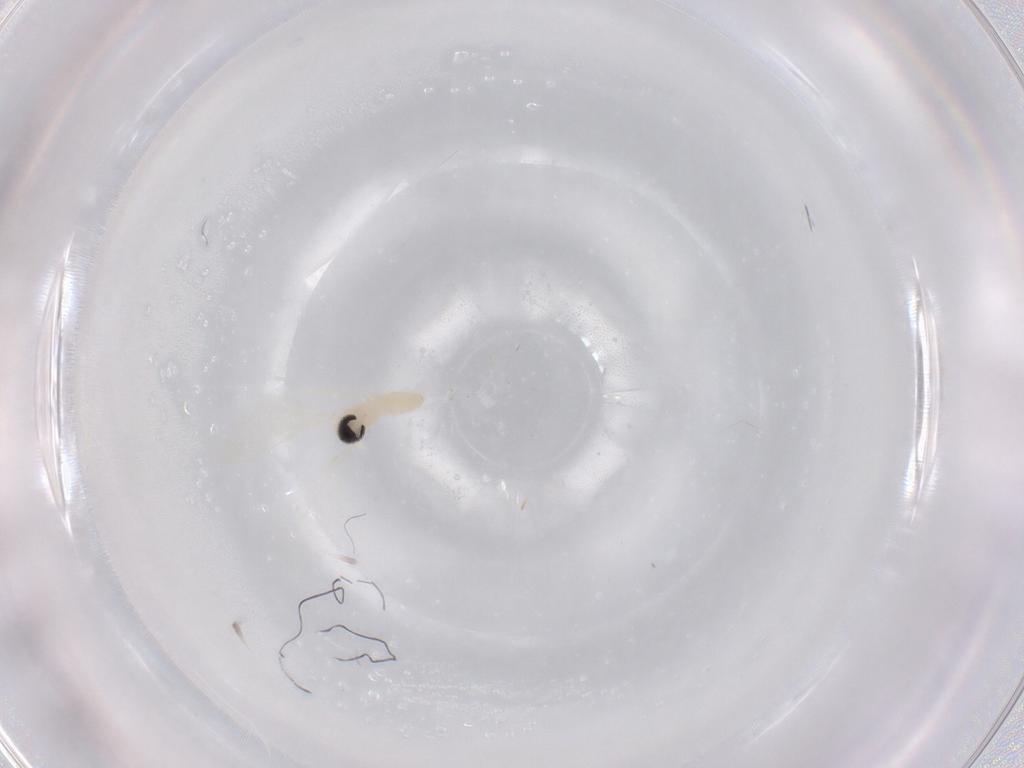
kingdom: Animalia
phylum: Arthropoda
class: Insecta
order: Diptera
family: Cecidomyiidae
